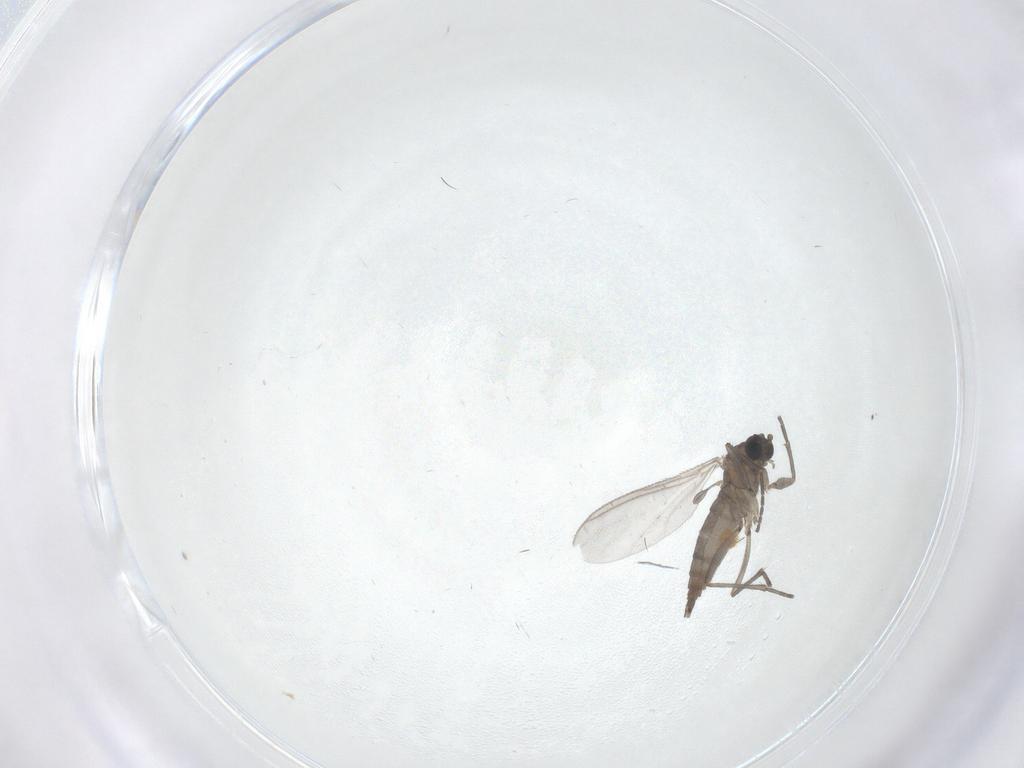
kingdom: Animalia
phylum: Arthropoda
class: Insecta
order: Diptera
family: Sciaridae
